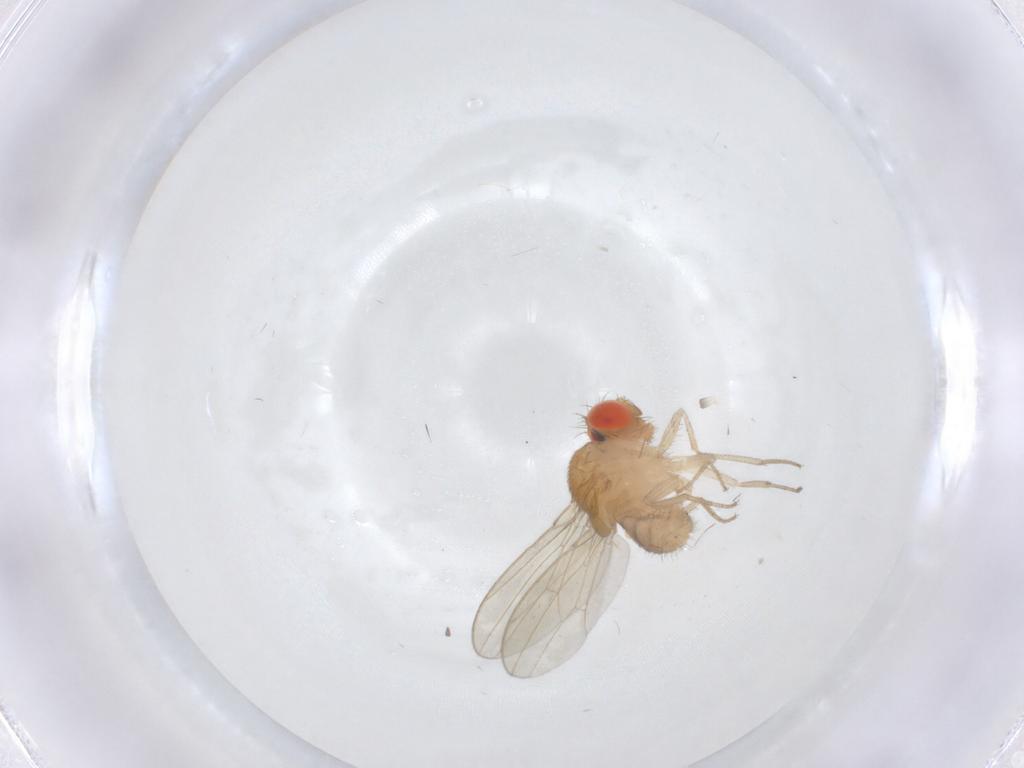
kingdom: Animalia
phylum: Arthropoda
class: Insecta
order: Diptera
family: Drosophilidae
